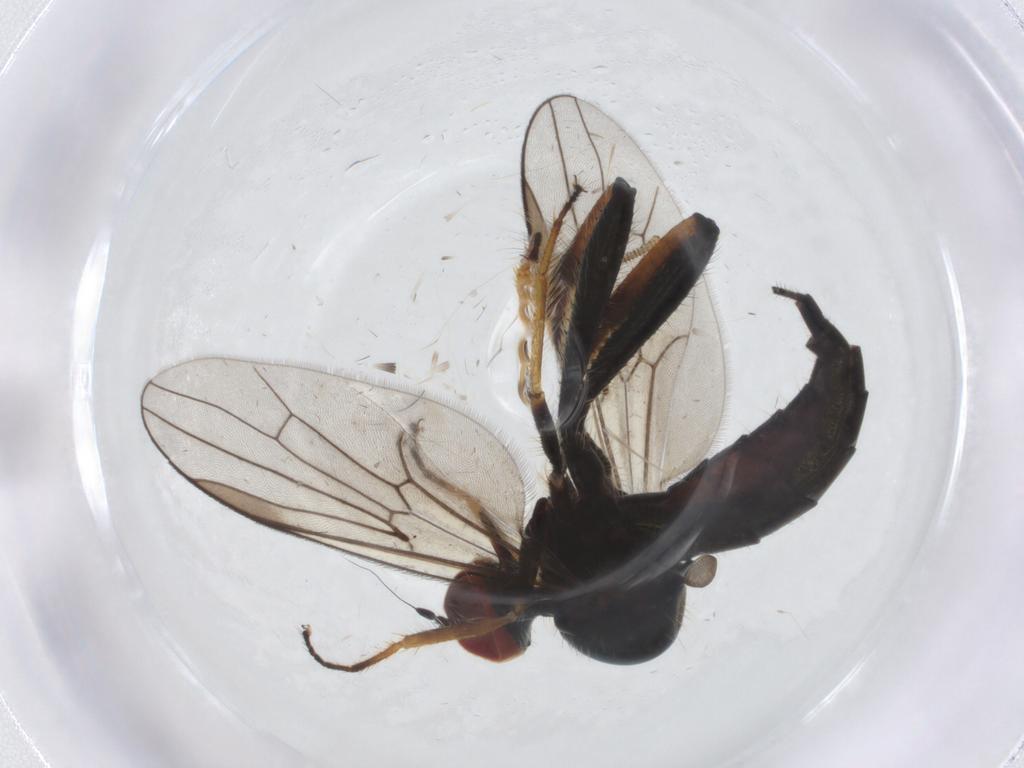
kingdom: Animalia
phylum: Arthropoda
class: Insecta
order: Diptera
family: Hybotidae
